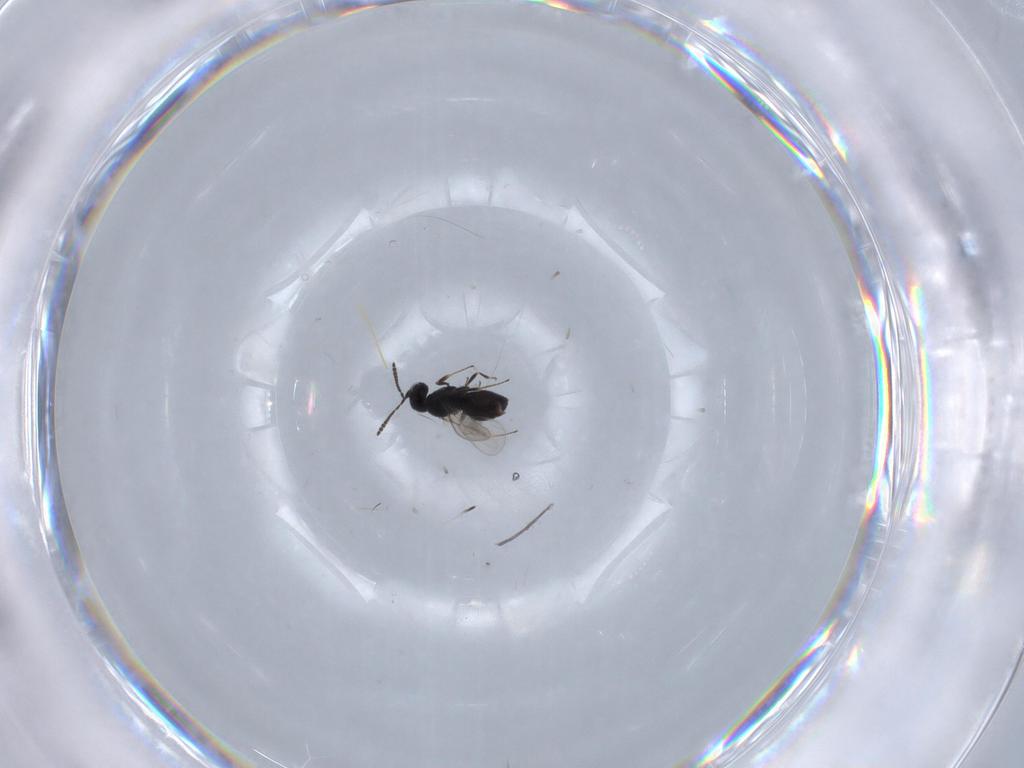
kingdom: Animalia
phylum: Arthropoda
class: Insecta
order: Hymenoptera
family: Scelionidae
